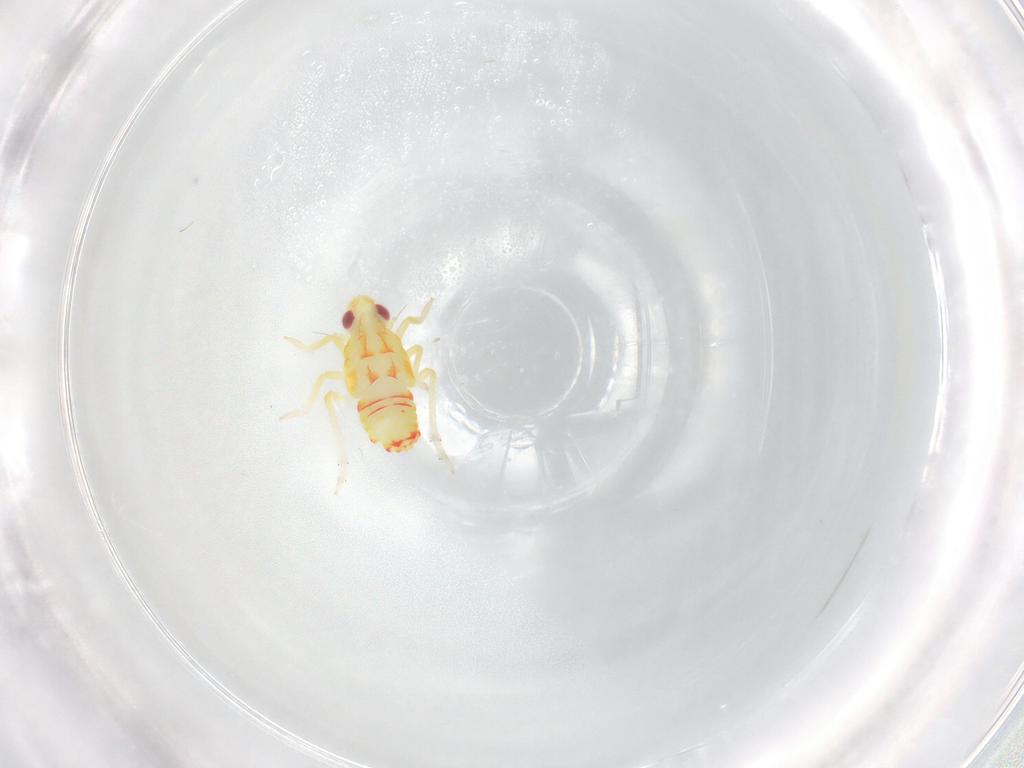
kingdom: Animalia
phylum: Arthropoda
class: Insecta
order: Hemiptera
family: Tropiduchidae
